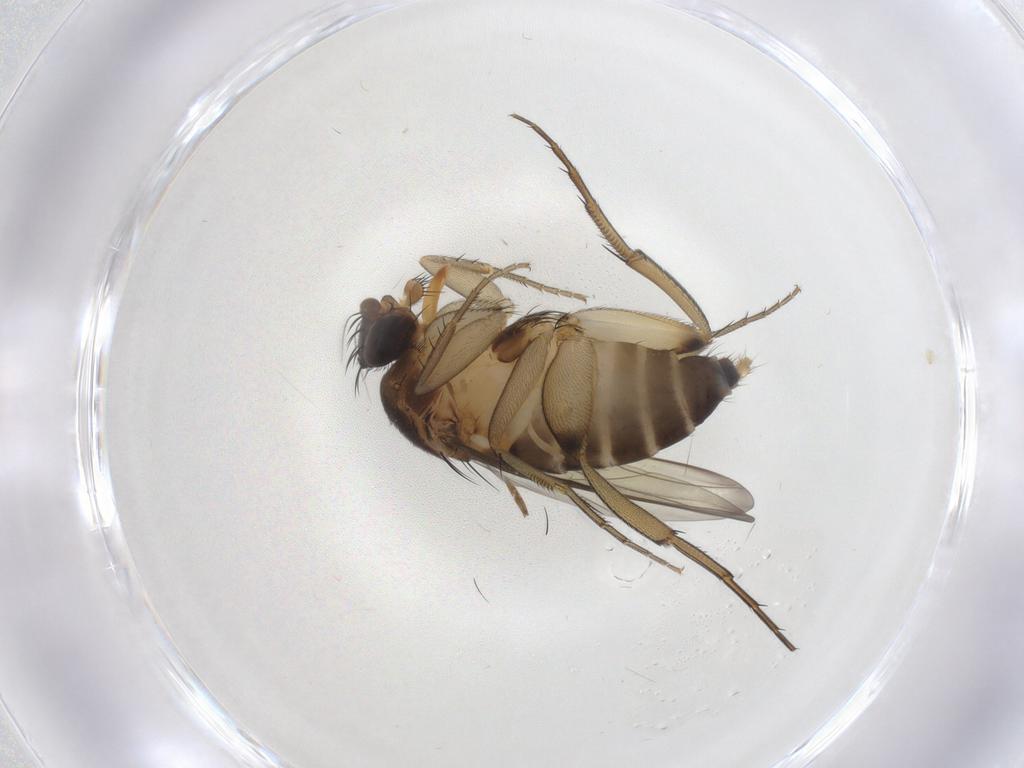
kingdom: Animalia
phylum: Arthropoda
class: Insecta
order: Diptera
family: Phoridae
